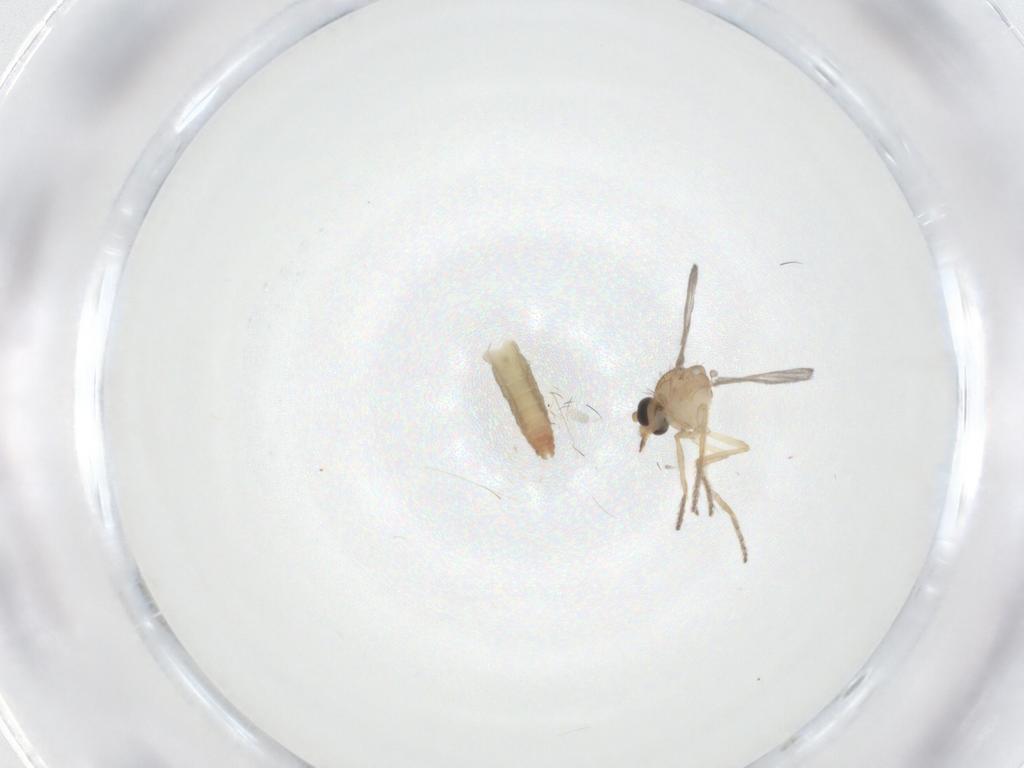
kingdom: Animalia
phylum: Arthropoda
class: Insecta
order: Diptera
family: Ceratopogonidae
